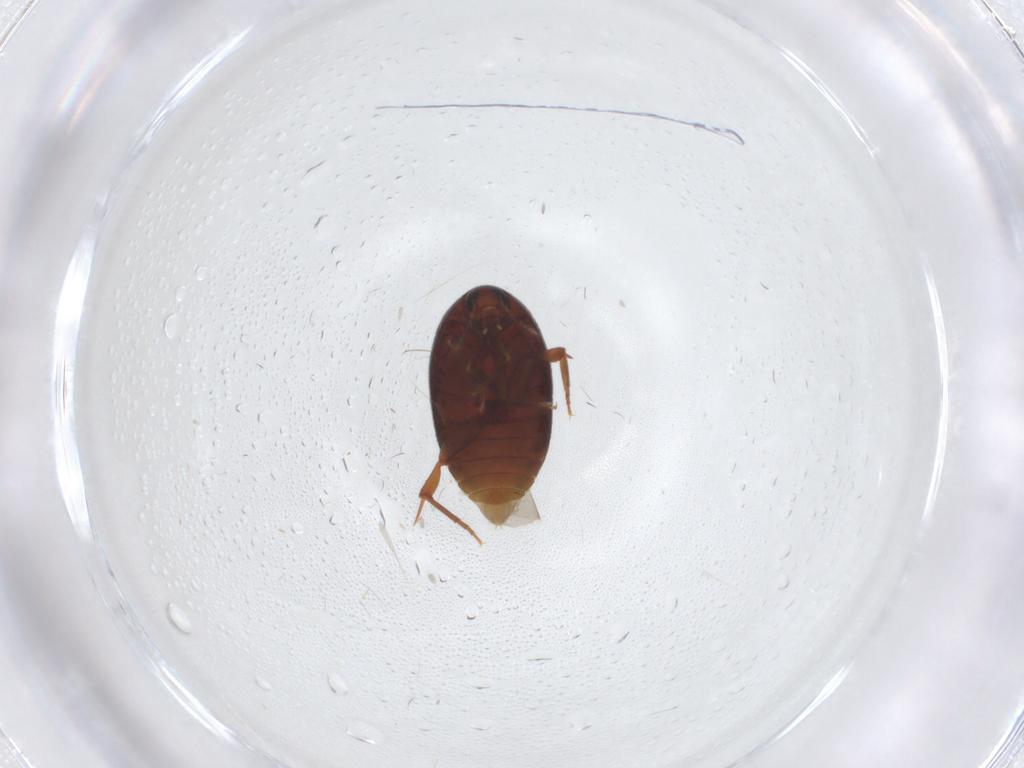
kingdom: Animalia
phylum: Arthropoda
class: Insecta
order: Coleoptera
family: Melandryidae
